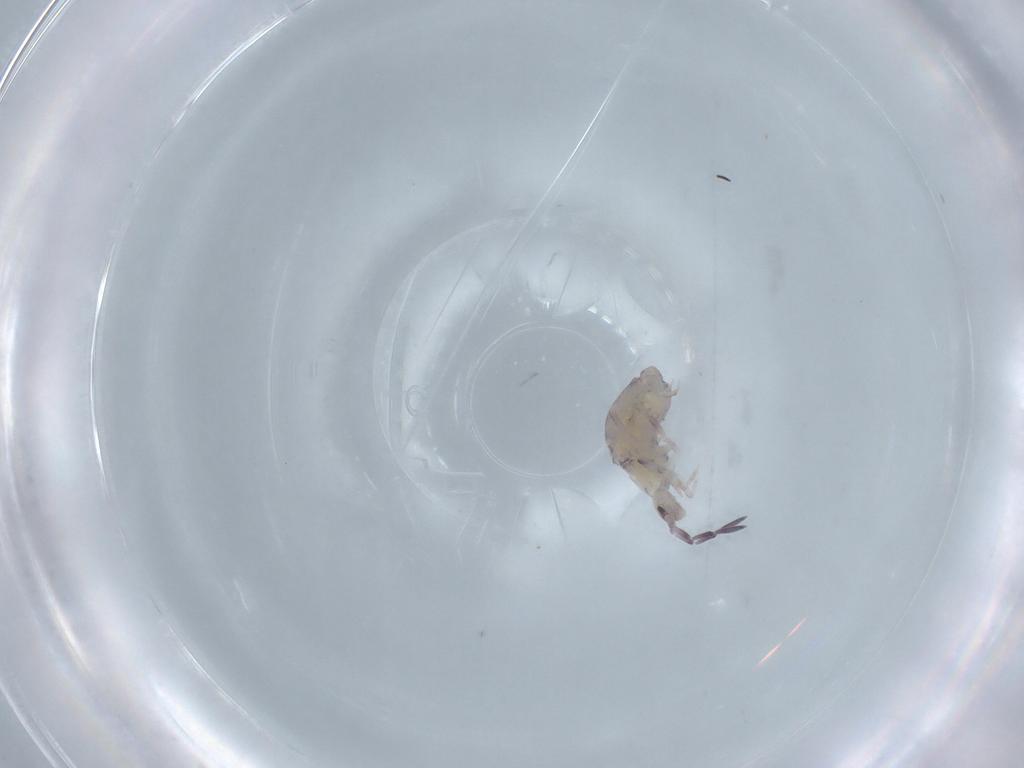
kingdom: Animalia
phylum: Arthropoda
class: Collembola
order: Poduromorpha
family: Hypogastruridae
